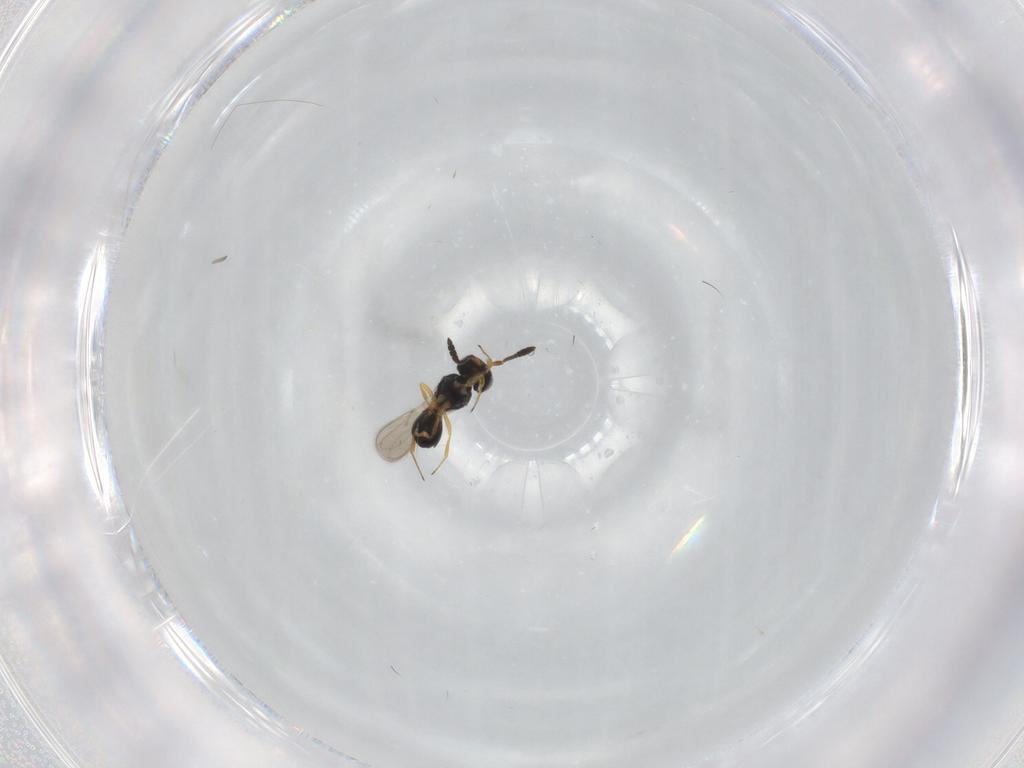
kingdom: Animalia
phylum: Arthropoda
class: Insecta
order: Hymenoptera
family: Scelionidae
